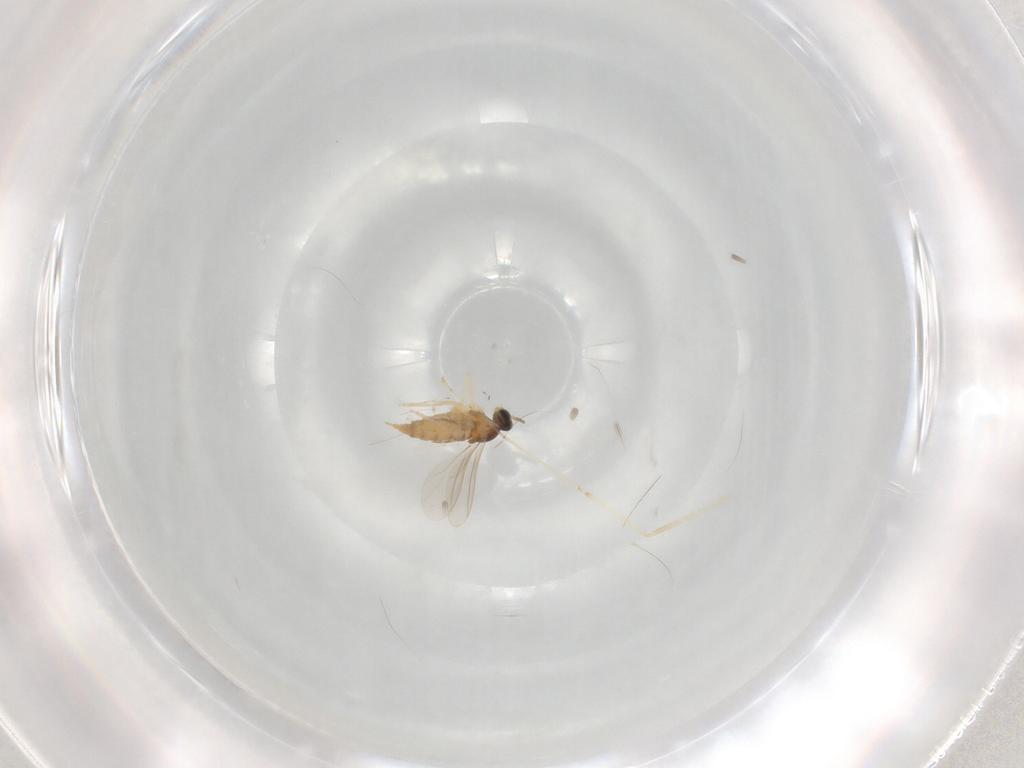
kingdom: Animalia
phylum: Arthropoda
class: Insecta
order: Diptera
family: Cecidomyiidae
